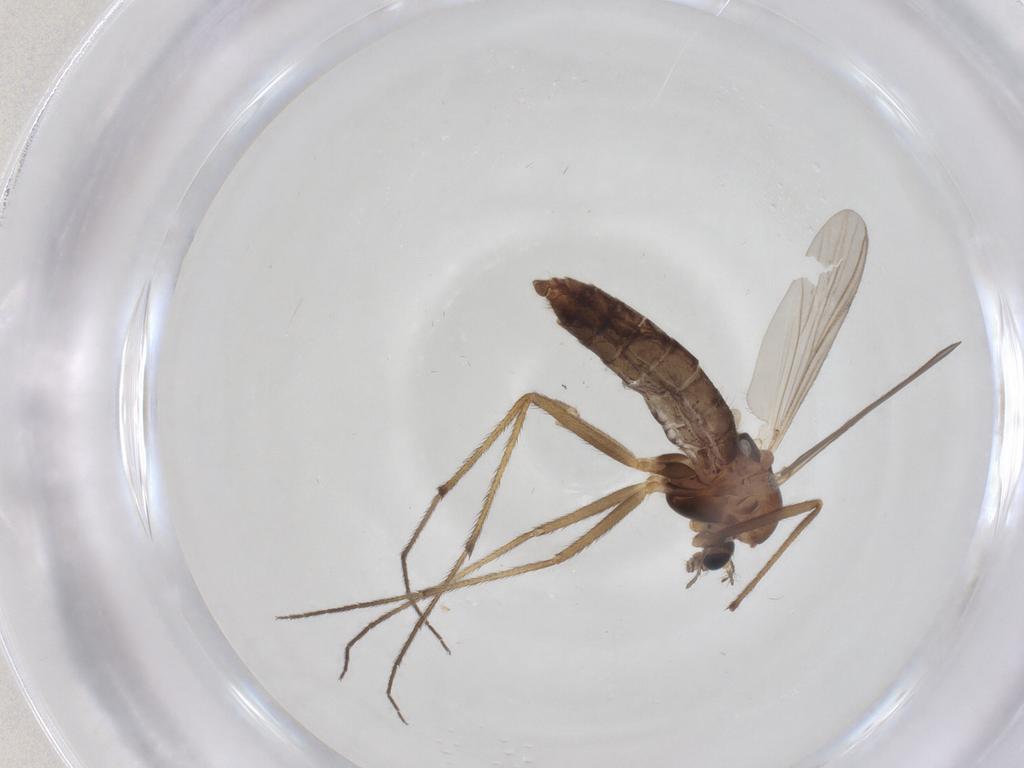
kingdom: Animalia
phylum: Arthropoda
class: Insecta
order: Diptera
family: Chironomidae
